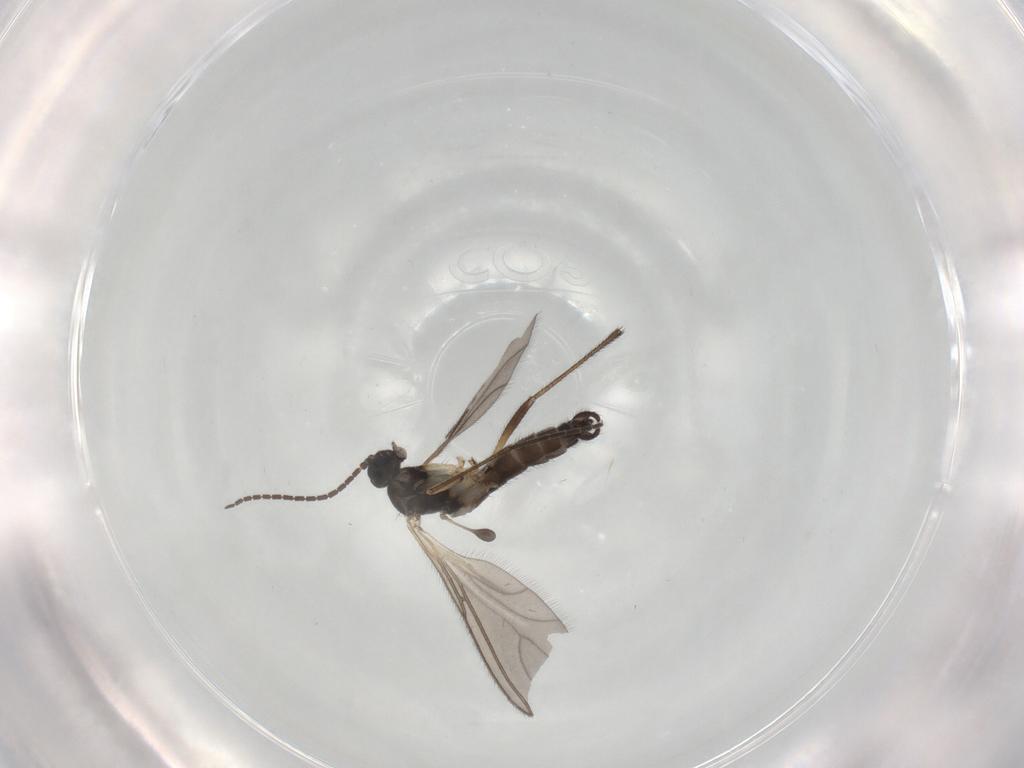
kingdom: Animalia
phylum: Arthropoda
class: Insecta
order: Diptera
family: Sciaridae
